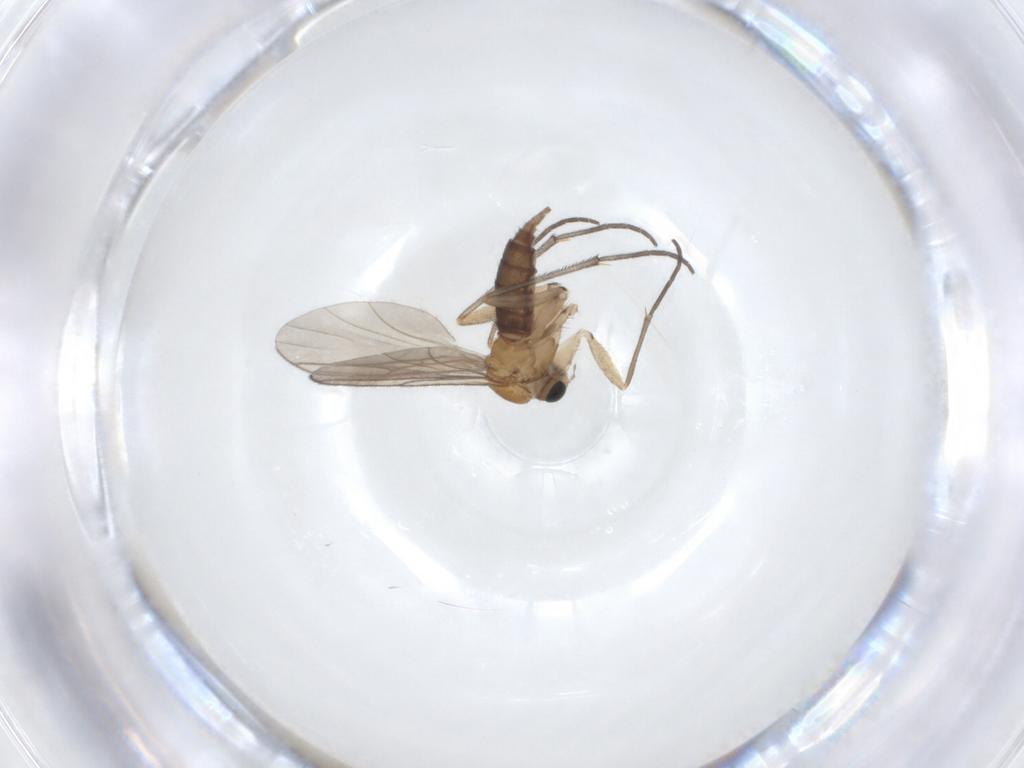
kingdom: Animalia
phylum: Arthropoda
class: Insecta
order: Diptera
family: Sciaridae
